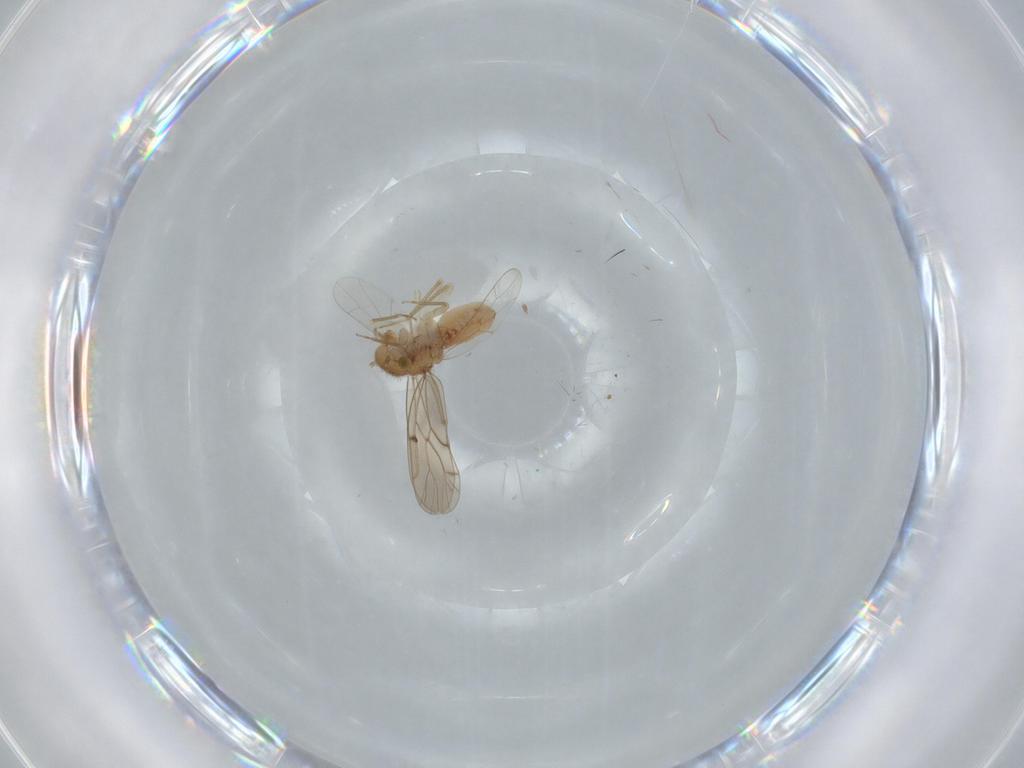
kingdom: Animalia
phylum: Arthropoda
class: Insecta
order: Psocodea
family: Ectopsocidae
